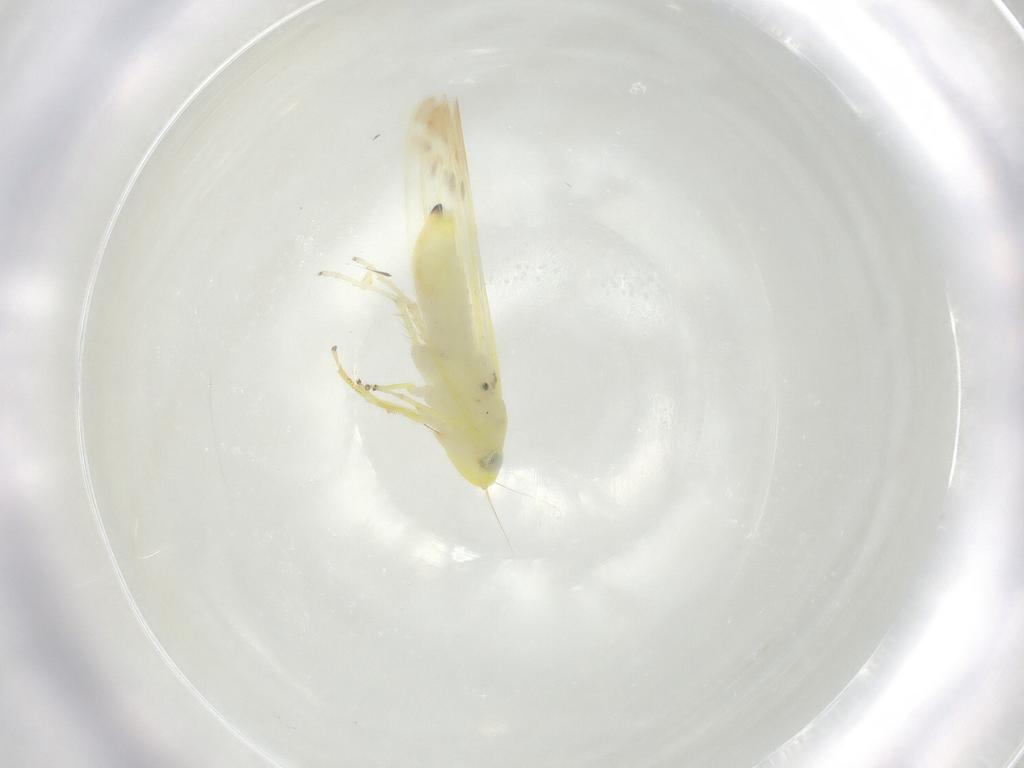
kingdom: Animalia
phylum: Arthropoda
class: Insecta
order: Hemiptera
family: Cicadellidae
